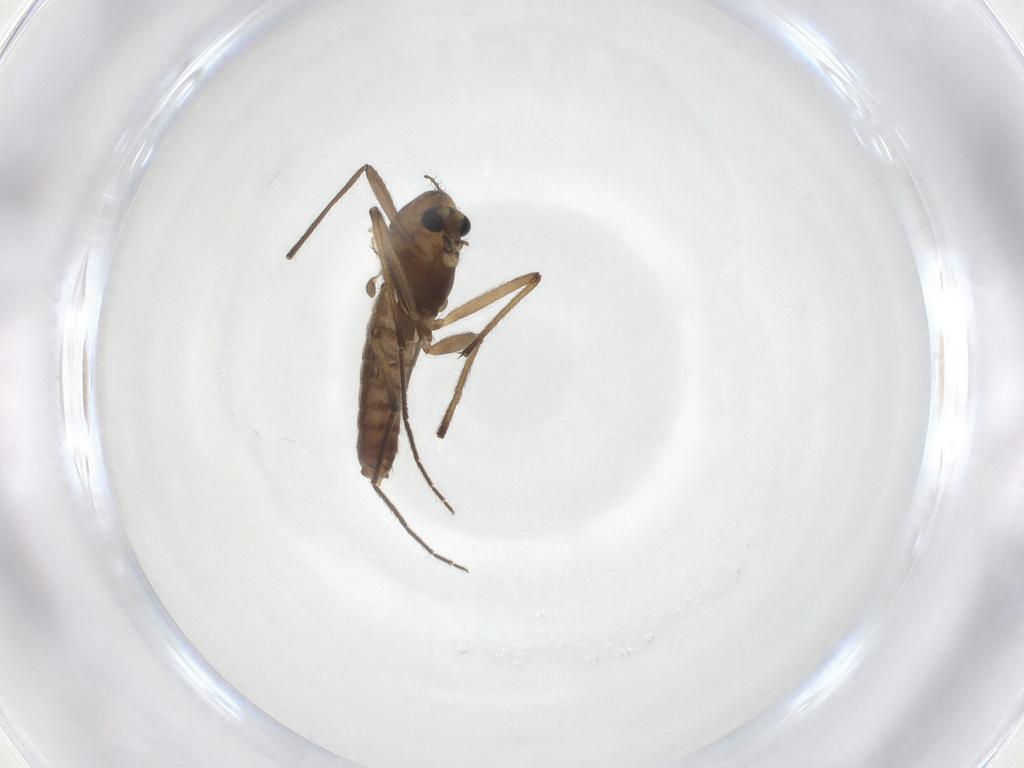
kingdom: Animalia
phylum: Arthropoda
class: Insecta
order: Diptera
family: Chironomidae
